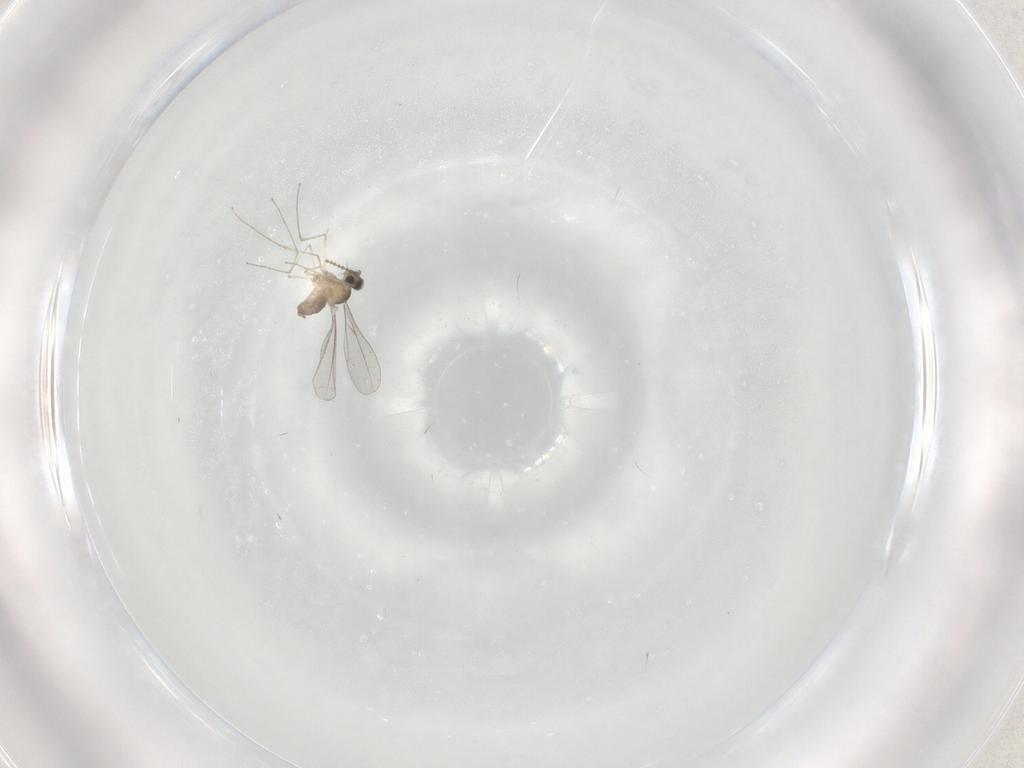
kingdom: Animalia
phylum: Arthropoda
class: Insecta
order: Diptera
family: Cecidomyiidae
